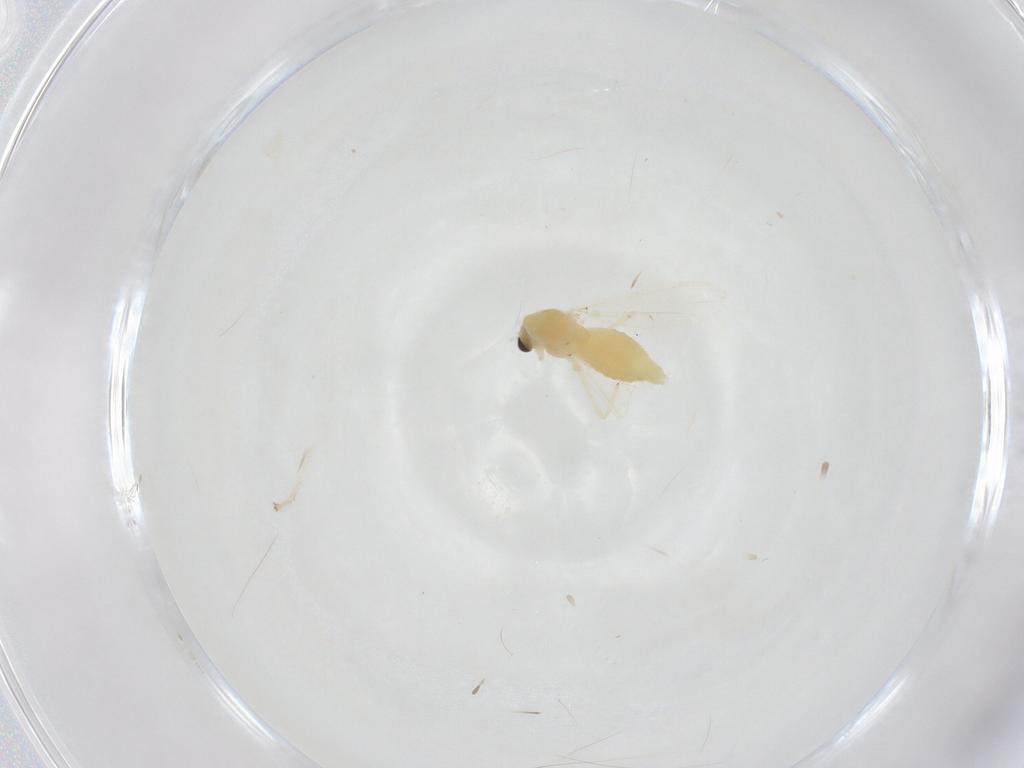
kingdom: Animalia
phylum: Arthropoda
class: Insecta
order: Diptera
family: Chironomidae
